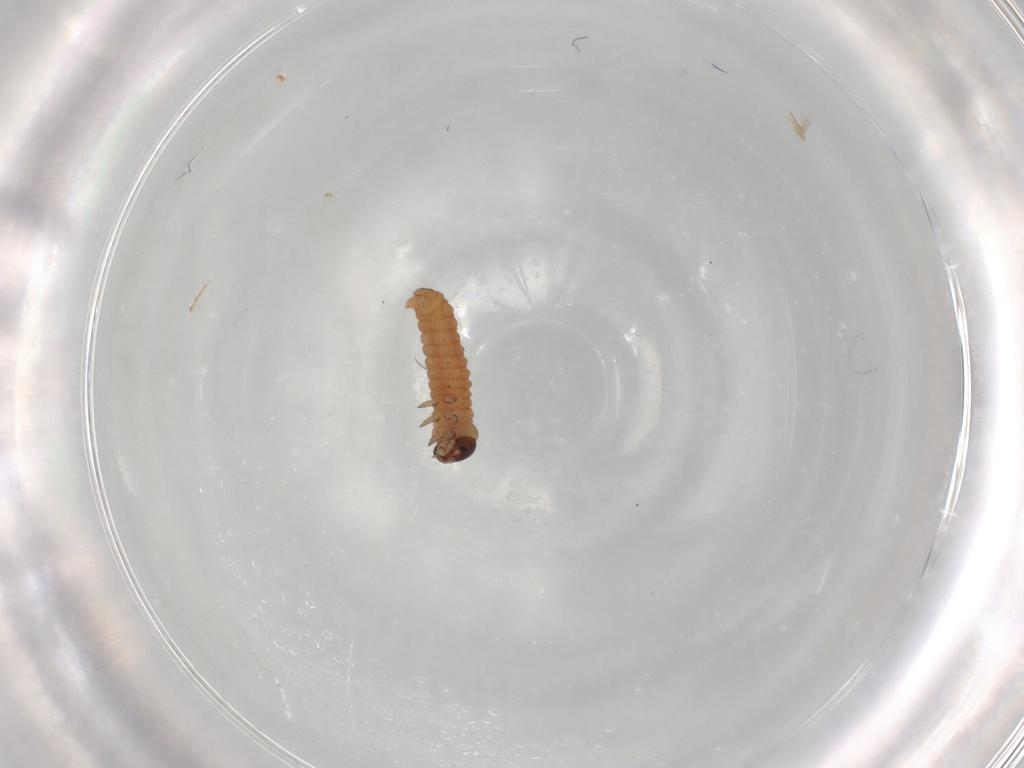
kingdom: Animalia
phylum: Arthropoda
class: Insecta
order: Lepidoptera
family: Tortricidae
